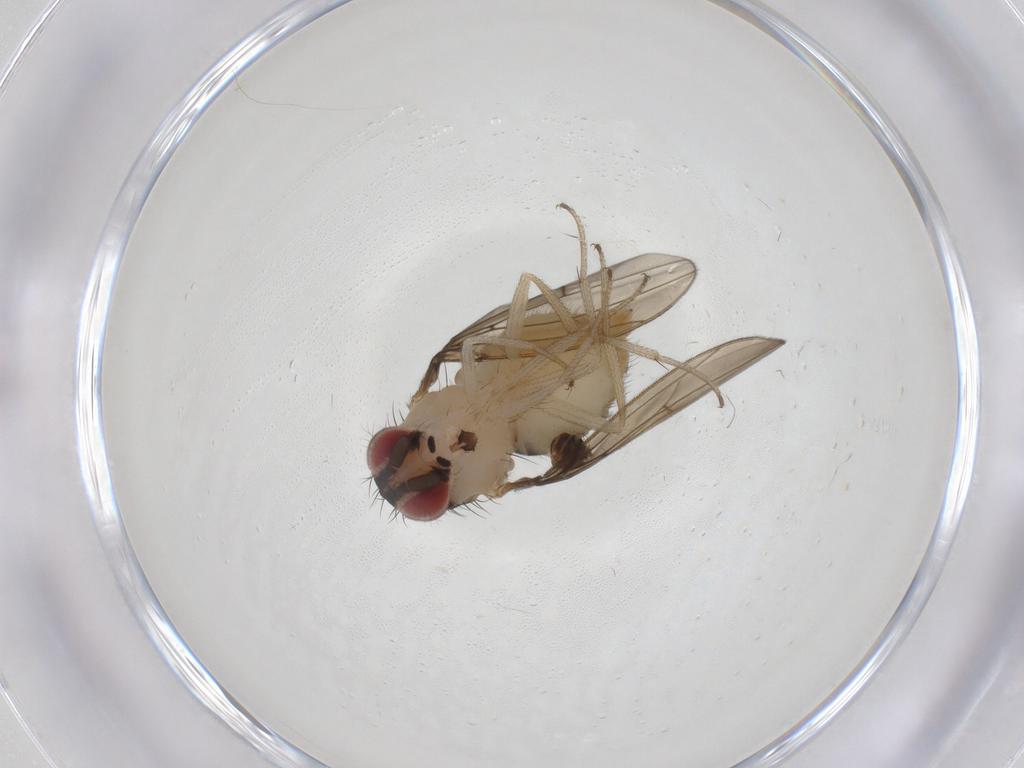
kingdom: Animalia
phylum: Arthropoda
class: Insecta
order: Diptera
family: Drosophilidae
